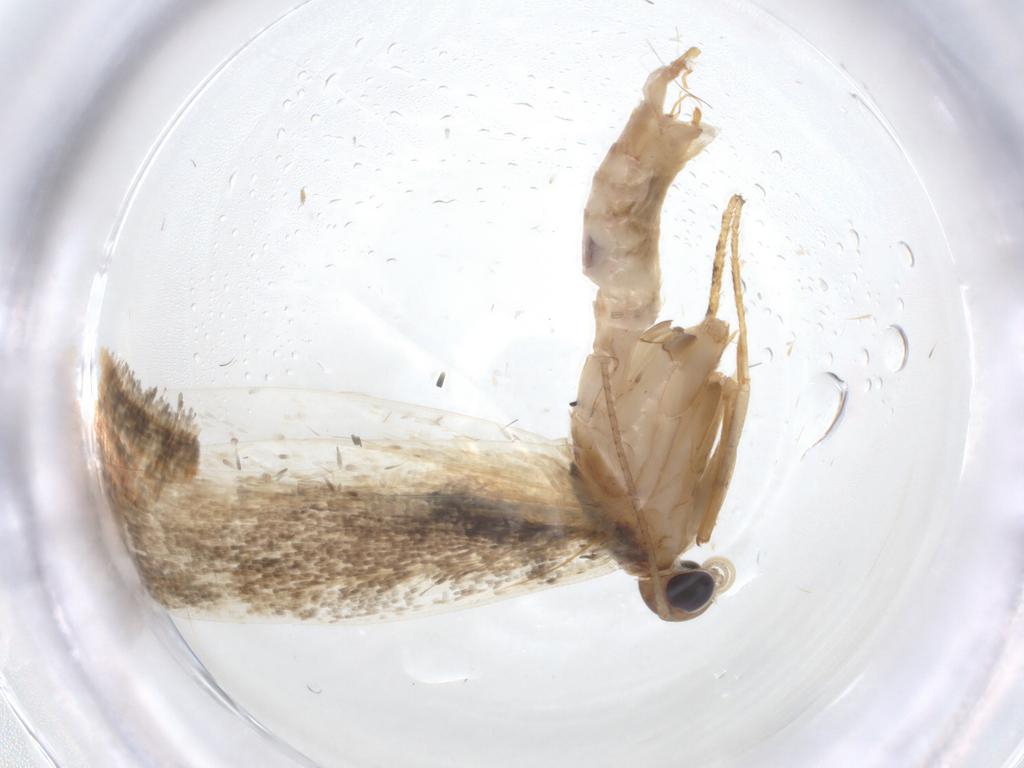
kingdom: Animalia
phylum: Arthropoda
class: Insecta
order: Lepidoptera
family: Gelechiidae
